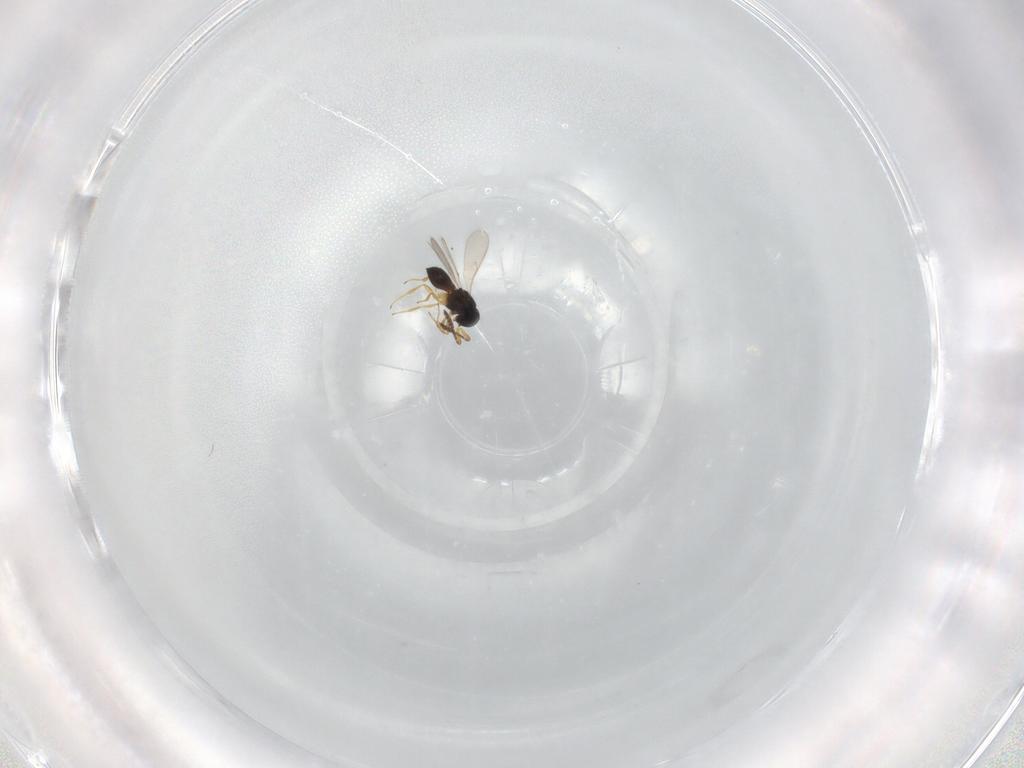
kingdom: Animalia
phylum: Arthropoda
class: Insecta
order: Hymenoptera
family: Scelionidae
